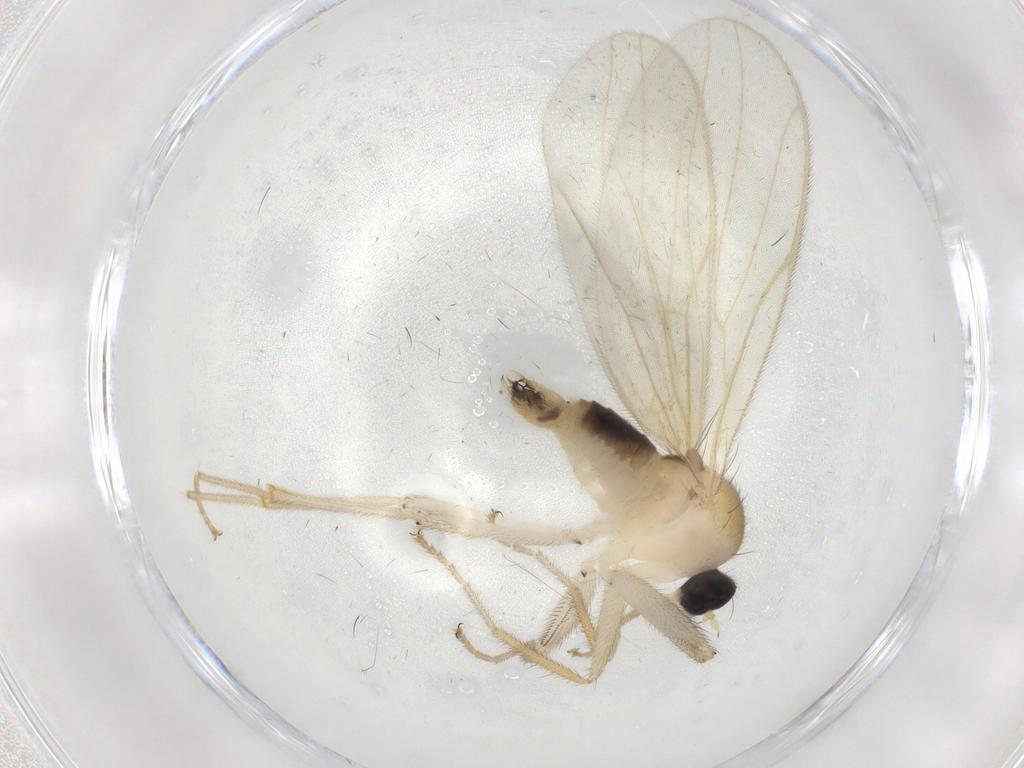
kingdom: Animalia
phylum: Arthropoda
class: Insecta
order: Diptera
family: Hybotidae
